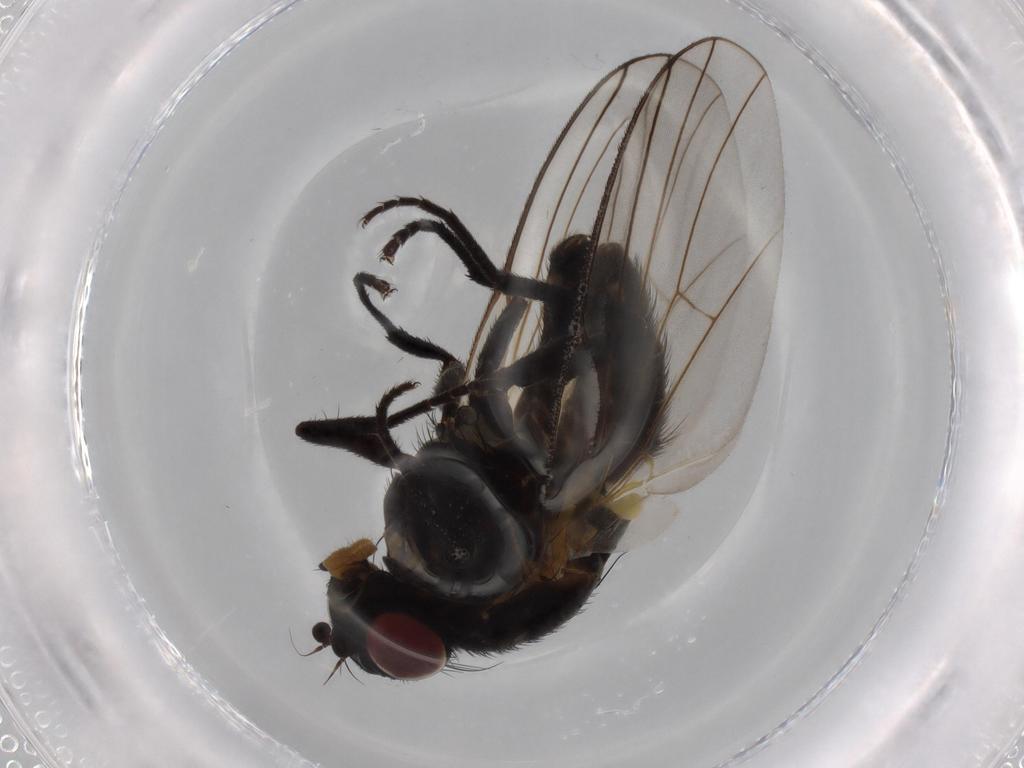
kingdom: Animalia
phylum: Arthropoda
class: Insecta
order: Diptera
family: Agromyzidae
